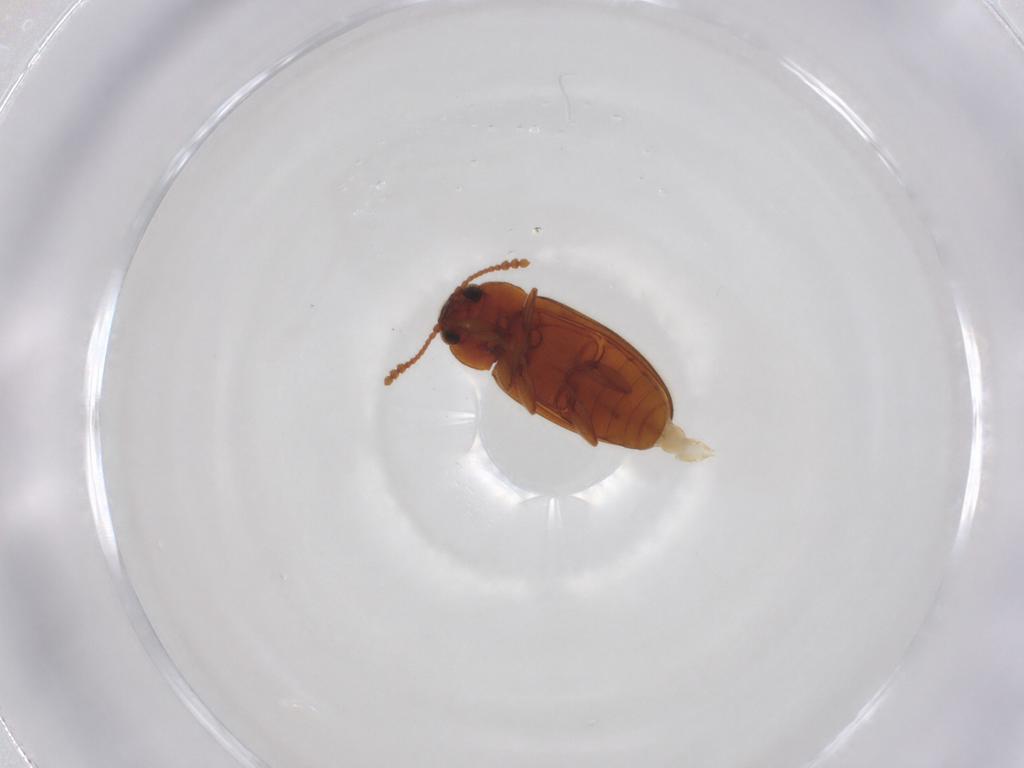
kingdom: Animalia
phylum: Arthropoda
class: Insecta
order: Coleoptera
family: Erotylidae
